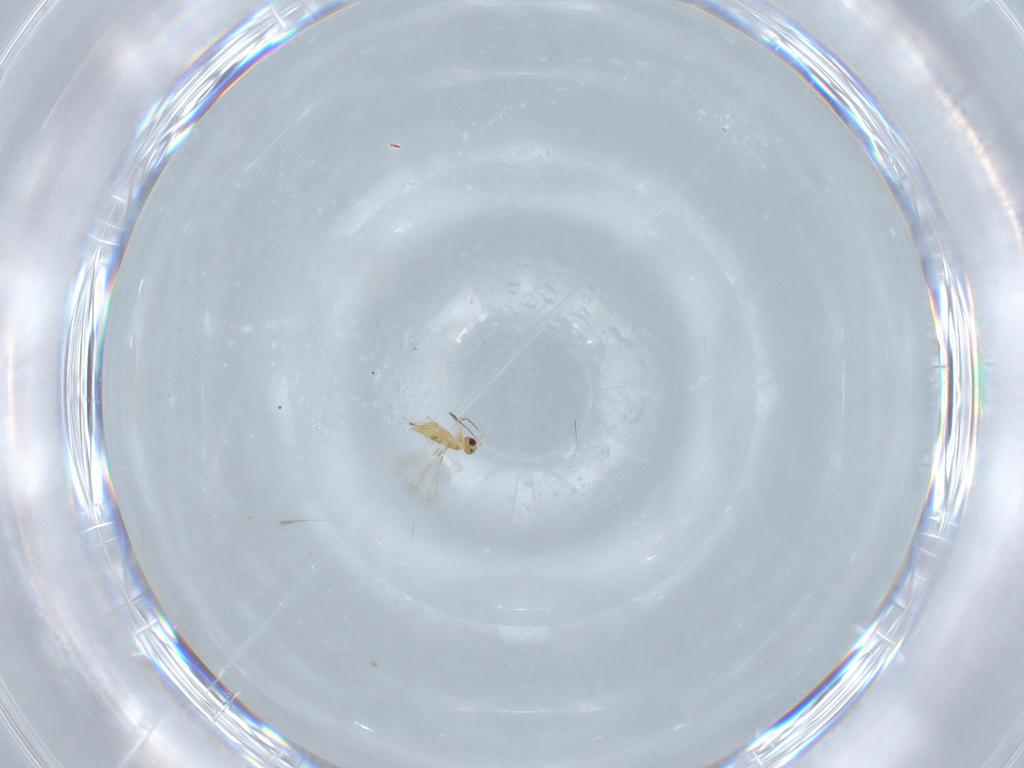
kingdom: Animalia
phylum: Arthropoda
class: Insecta
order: Hymenoptera
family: Mymaridae
